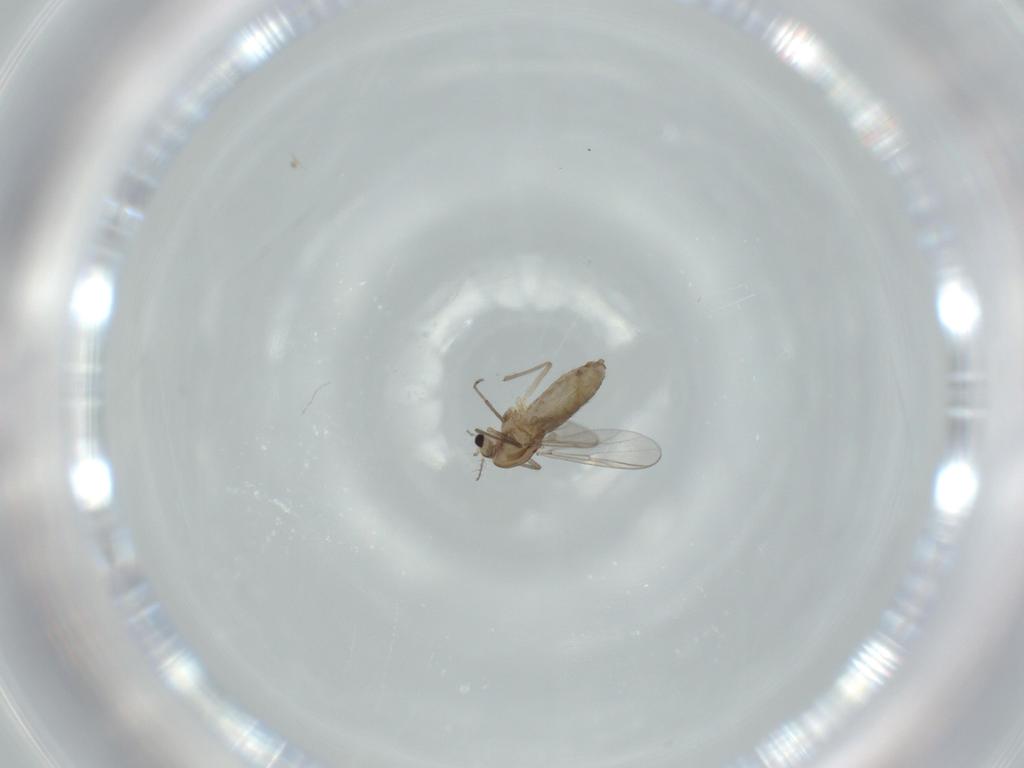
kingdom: Animalia
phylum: Arthropoda
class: Insecta
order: Diptera
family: Chironomidae
